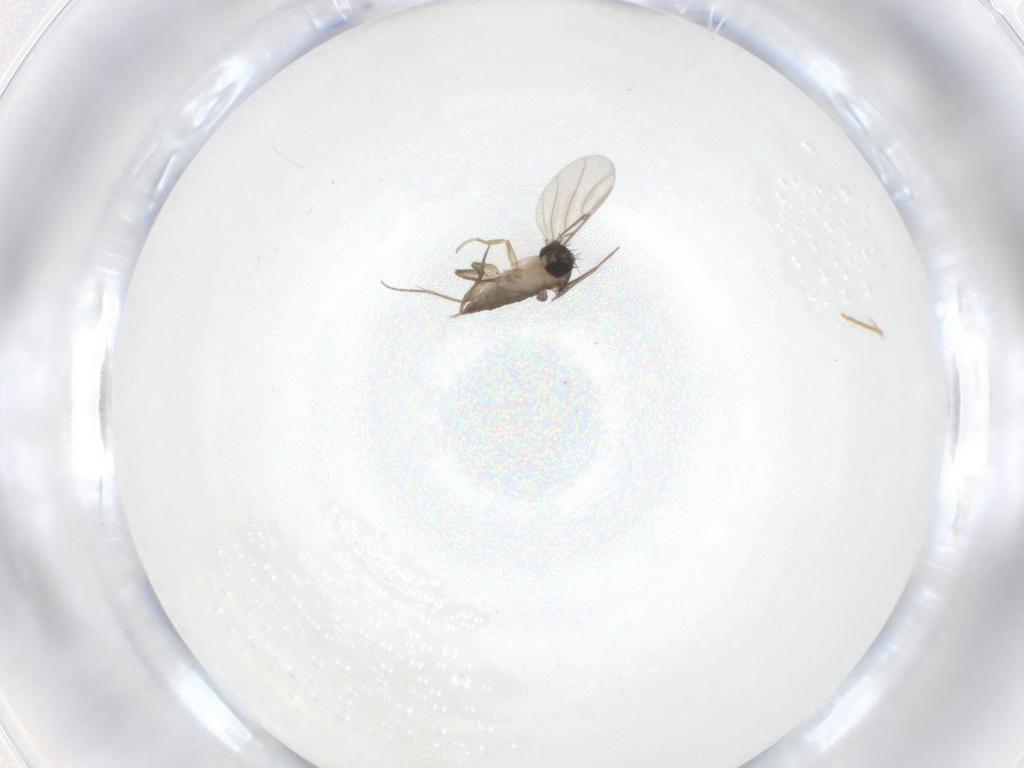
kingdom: Animalia
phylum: Arthropoda
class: Insecta
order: Diptera
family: Phoridae
